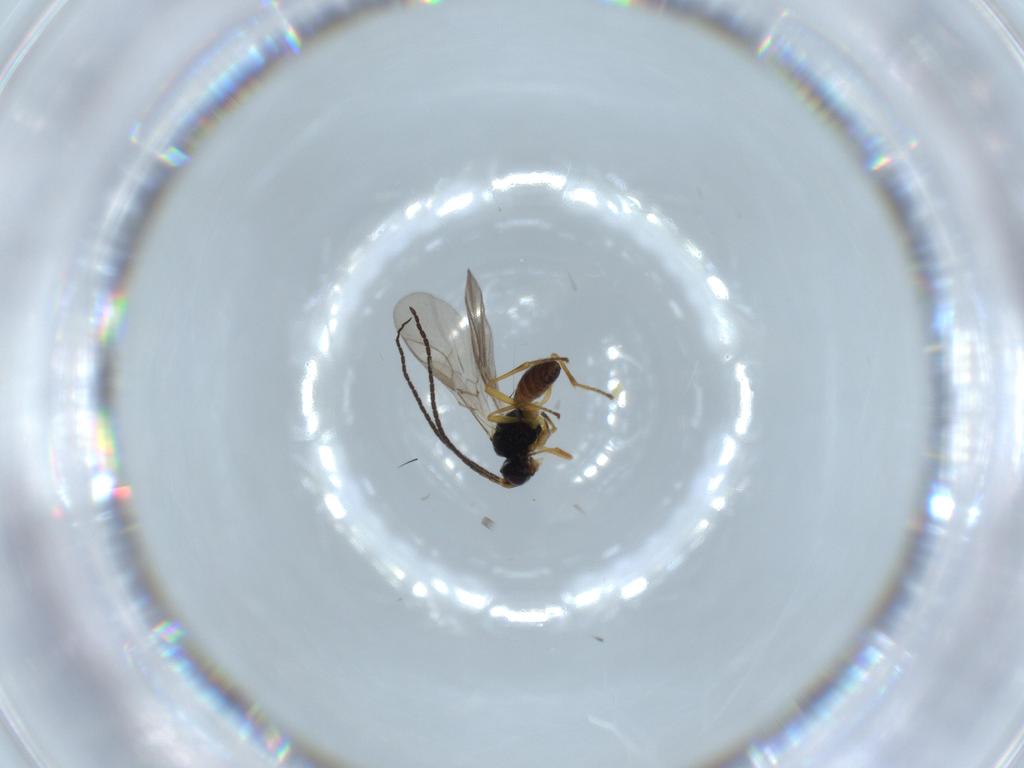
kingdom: Animalia
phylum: Arthropoda
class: Insecta
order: Hymenoptera
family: Braconidae
